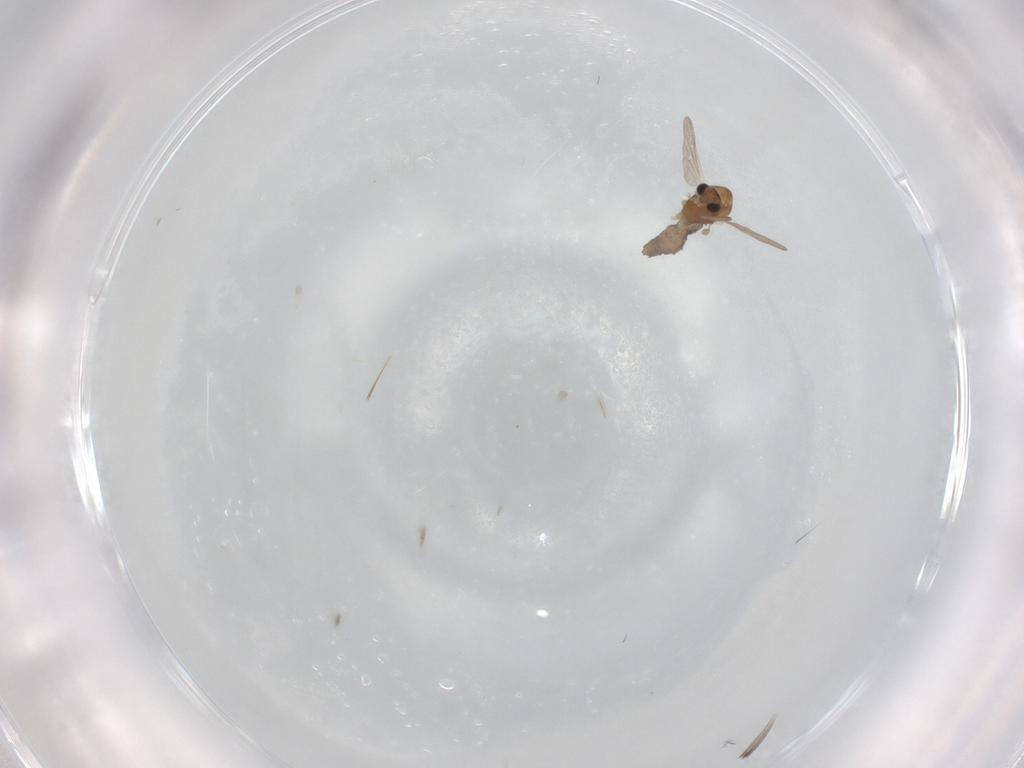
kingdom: Animalia
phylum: Arthropoda
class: Insecta
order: Diptera
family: Chironomidae
